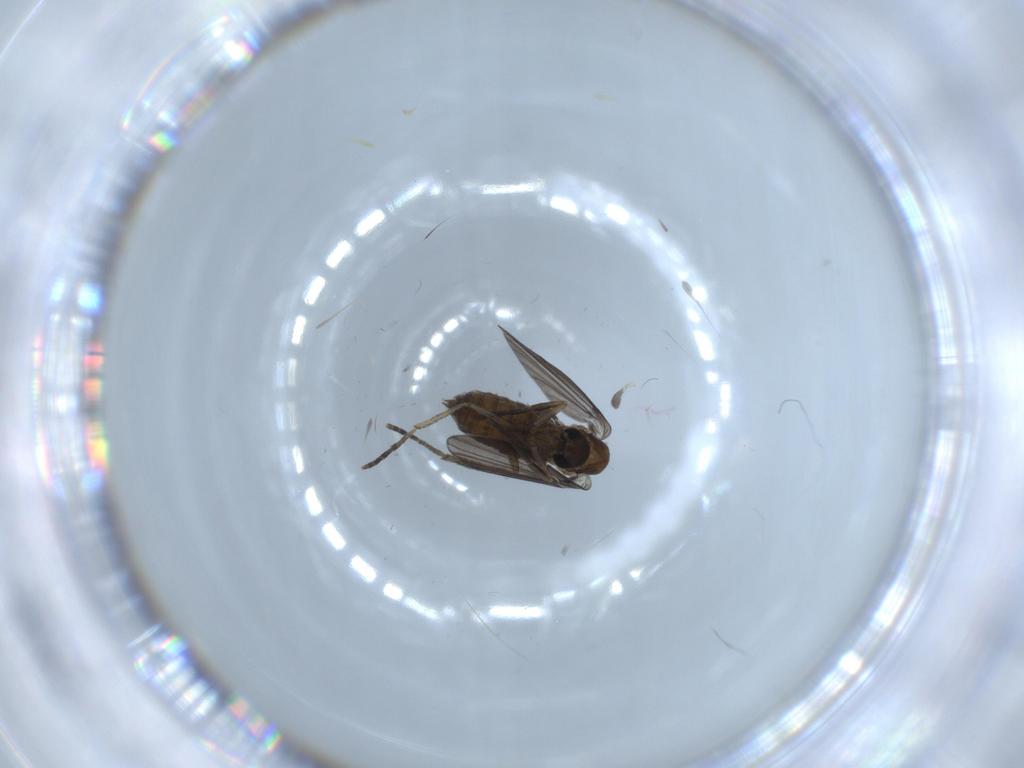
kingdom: Animalia
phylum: Arthropoda
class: Insecta
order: Diptera
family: Psychodidae
